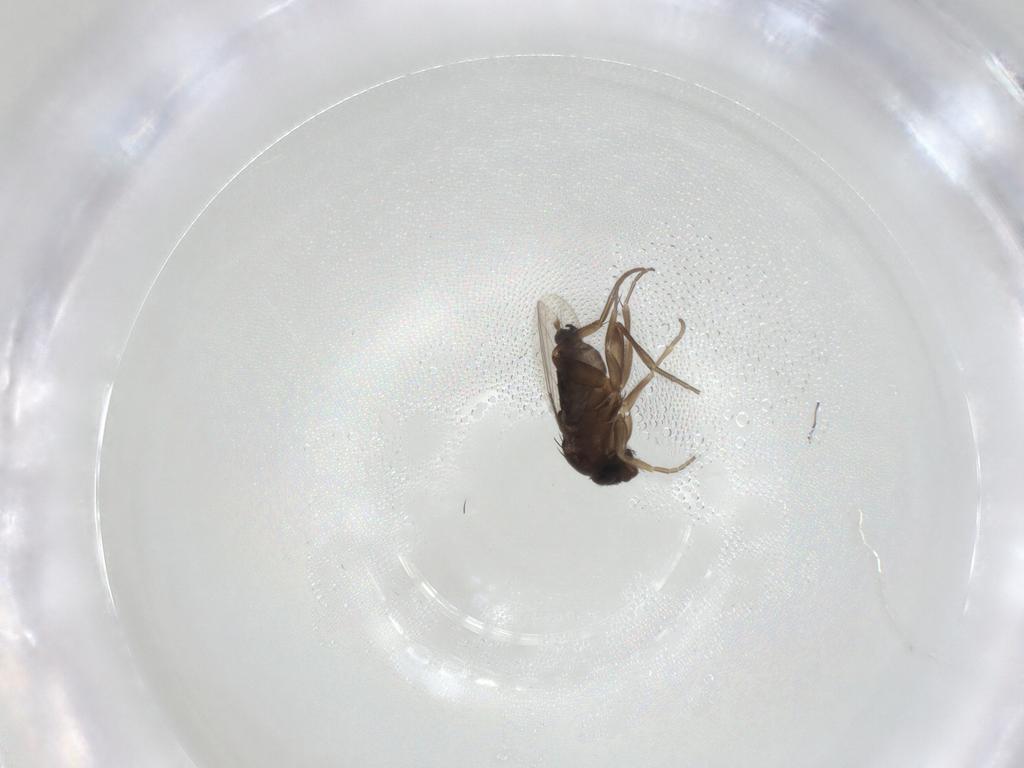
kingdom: Animalia
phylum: Arthropoda
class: Insecta
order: Diptera
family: Phoridae
